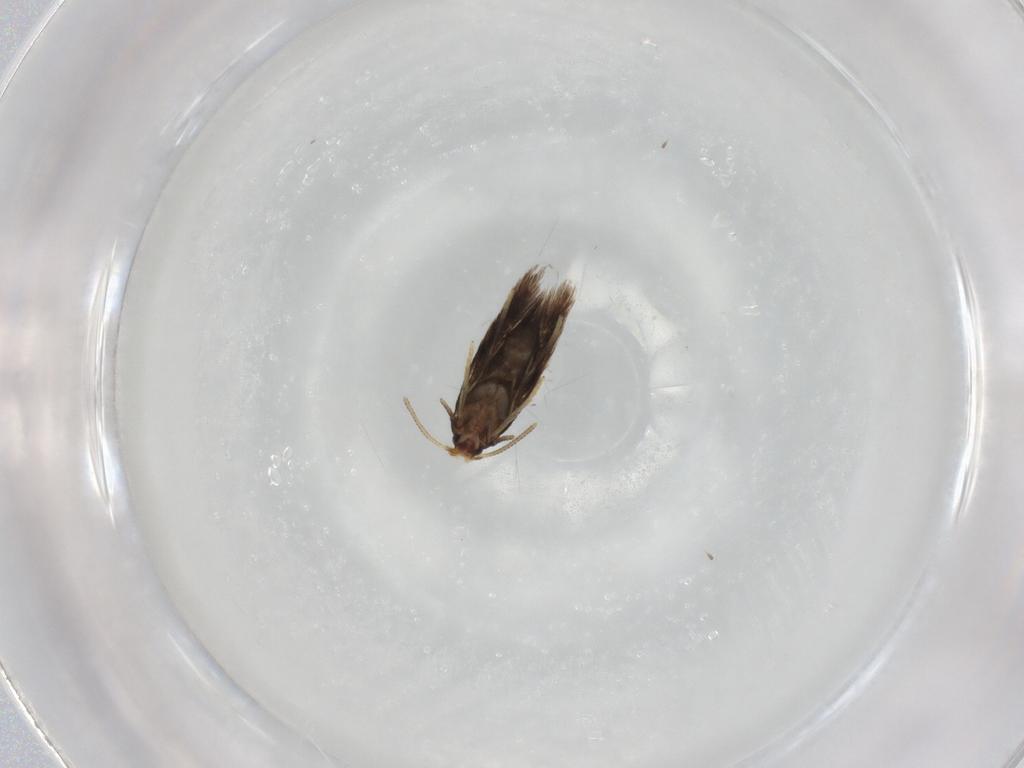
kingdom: Animalia
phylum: Arthropoda
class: Insecta
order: Lepidoptera
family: Nepticulidae
